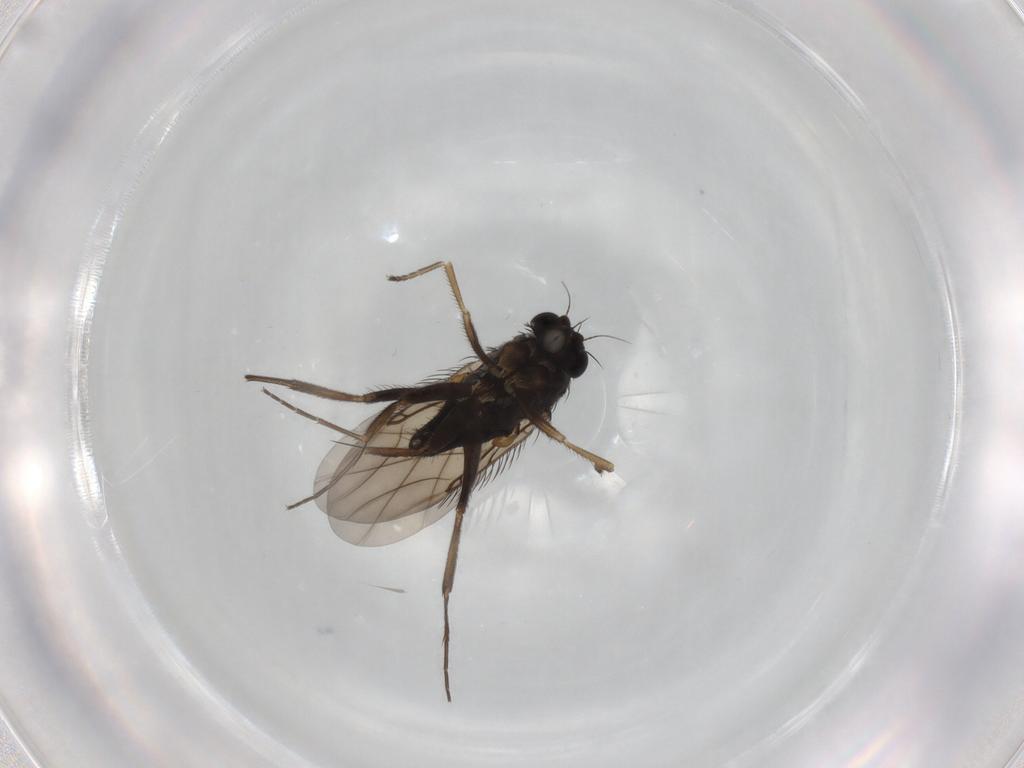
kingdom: Animalia
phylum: Arthropoda
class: Insecta
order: Diptera
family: Phoridae
